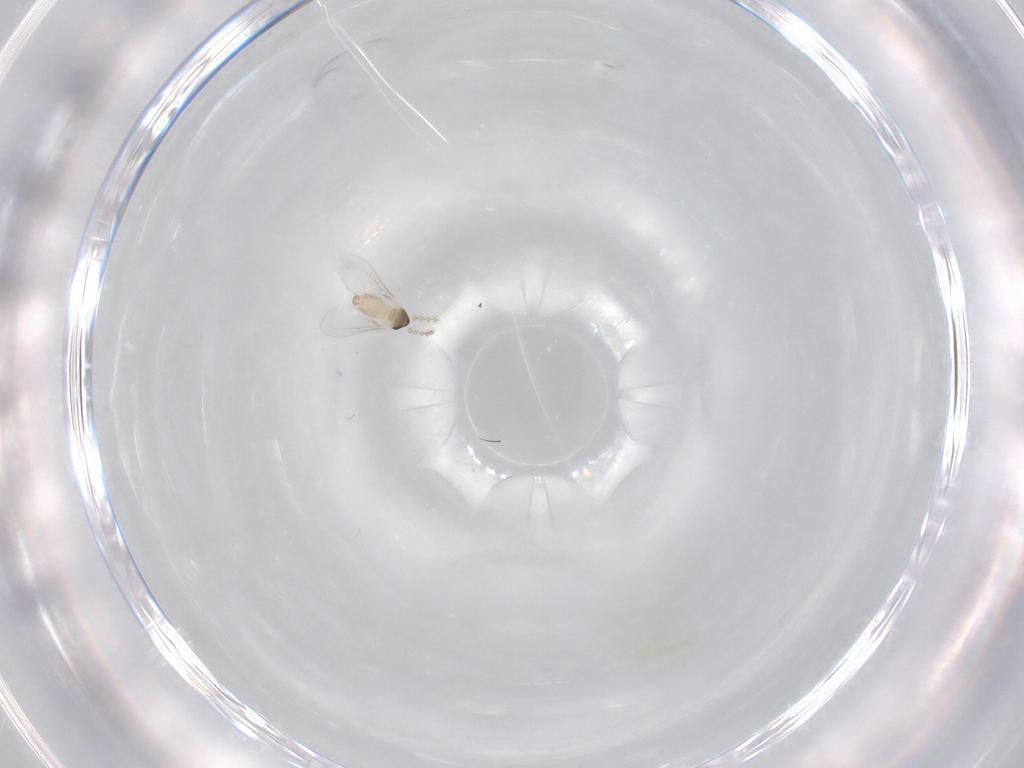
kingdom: Animalia
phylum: Arthropoda
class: Insecta
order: Diptera
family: Cecidomyiidae
